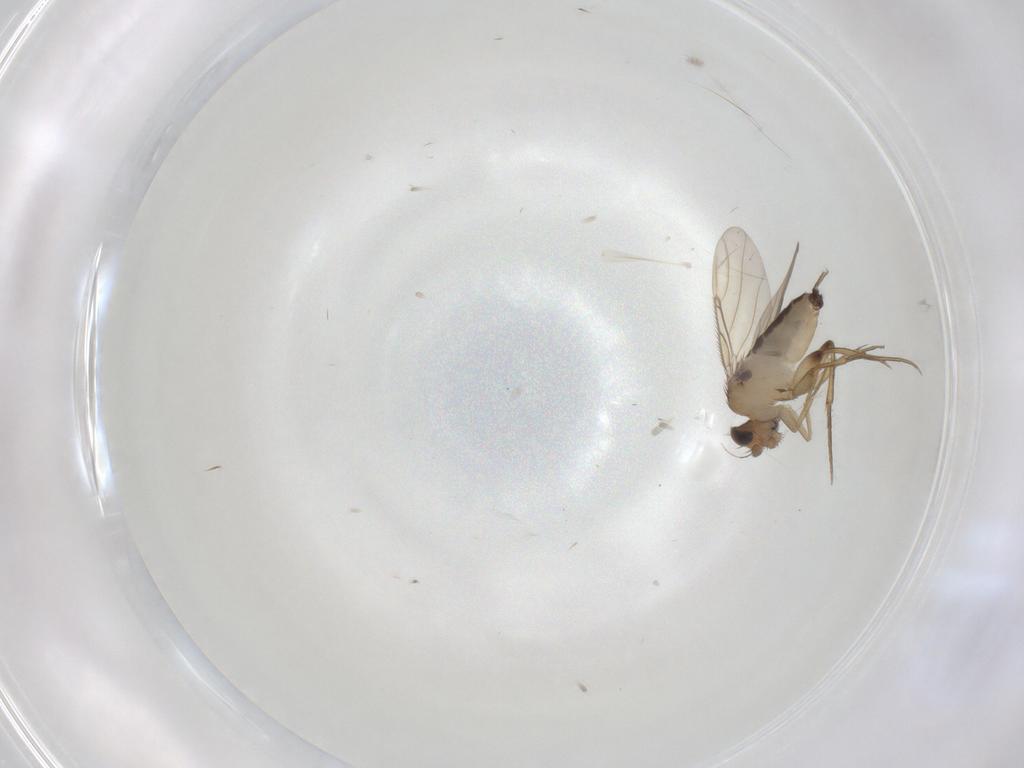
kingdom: Animalia
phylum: Arthropoda
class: Insecta
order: Diptera
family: Phoridae
